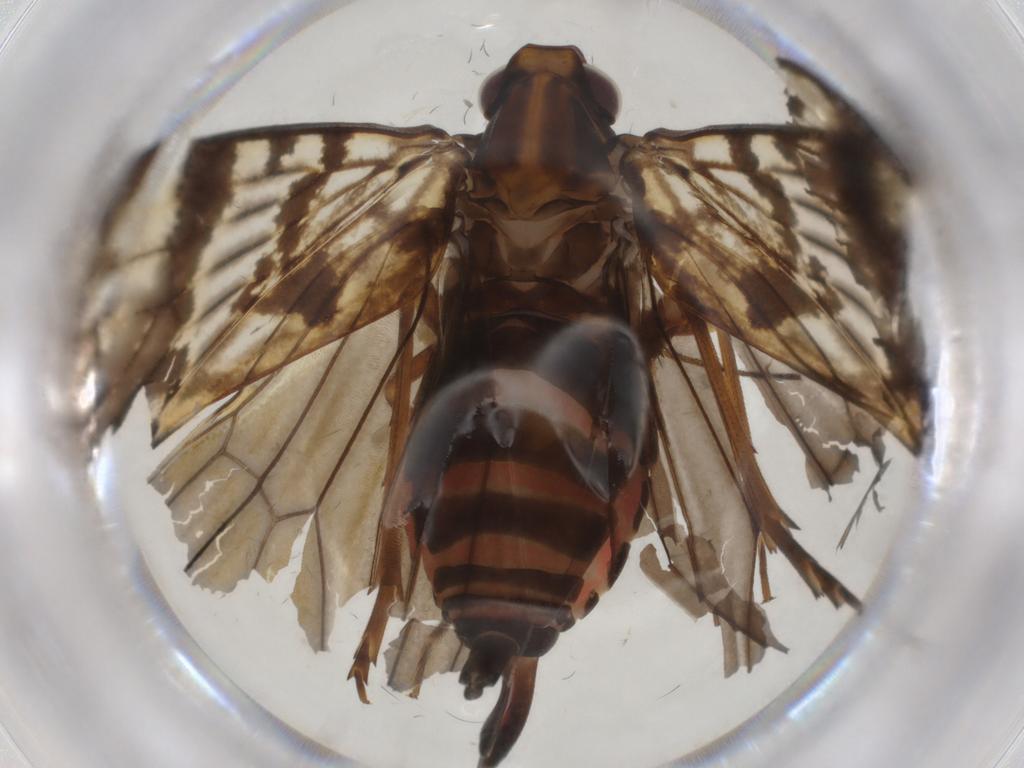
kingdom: Animalia
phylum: Arthropoda
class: Insecta
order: Hemiptera
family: Cixiidae
